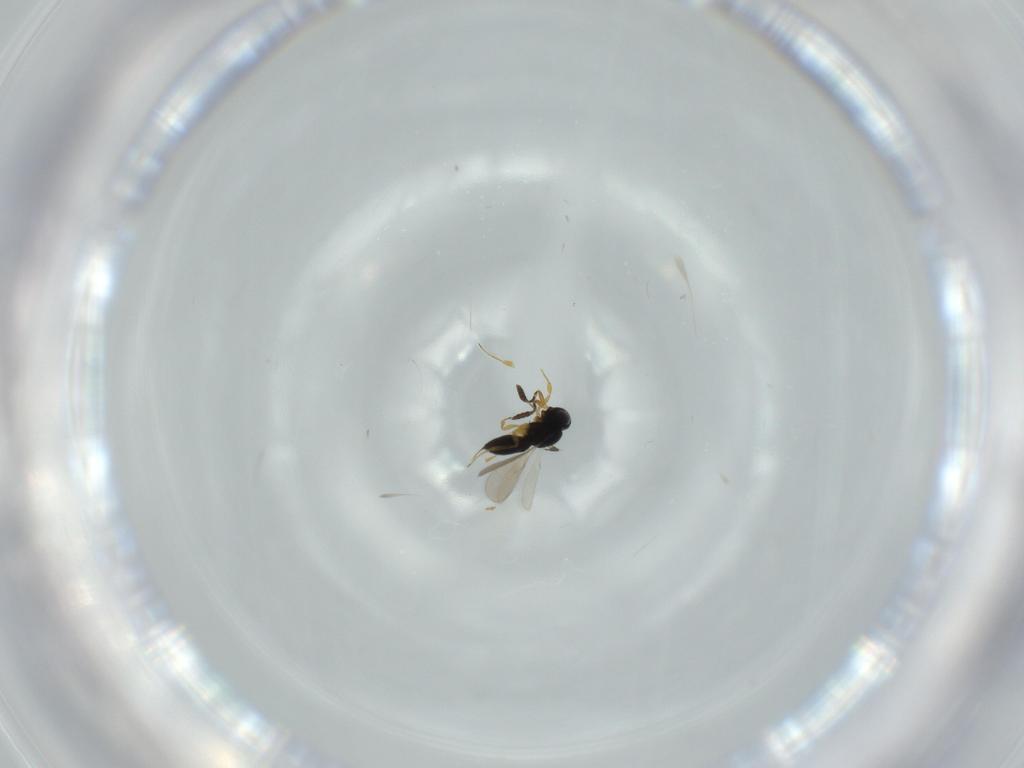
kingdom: Animalia
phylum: Arthropoda
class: Insecta
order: Hymenoptera
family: Scelionidae
